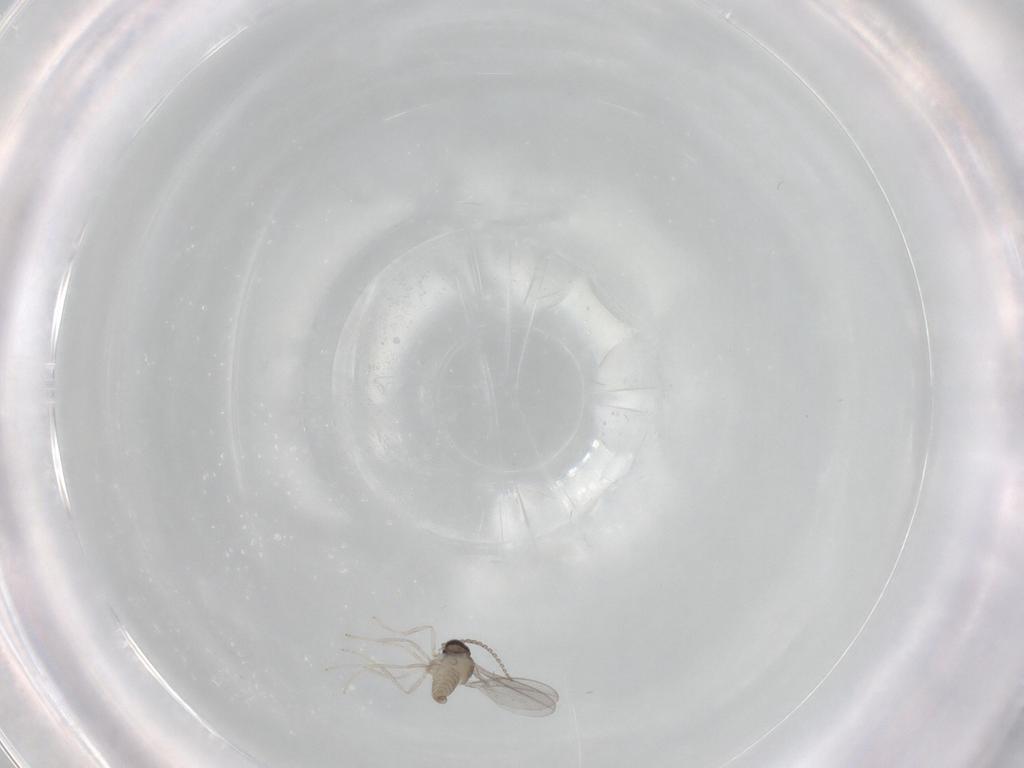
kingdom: Animalia
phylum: Arthropoda
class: Insecta
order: Diptera
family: Cecidomyiidae
